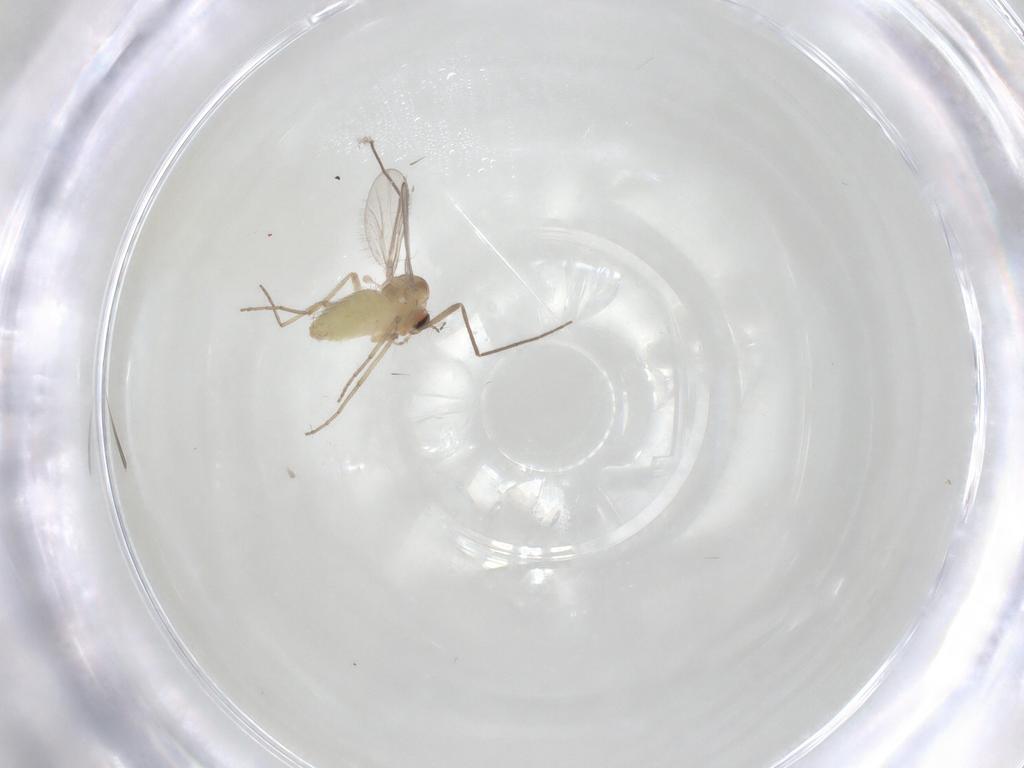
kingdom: Animalia
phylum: Arthropoda
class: Insecta
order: Diptera
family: Chironomidae
